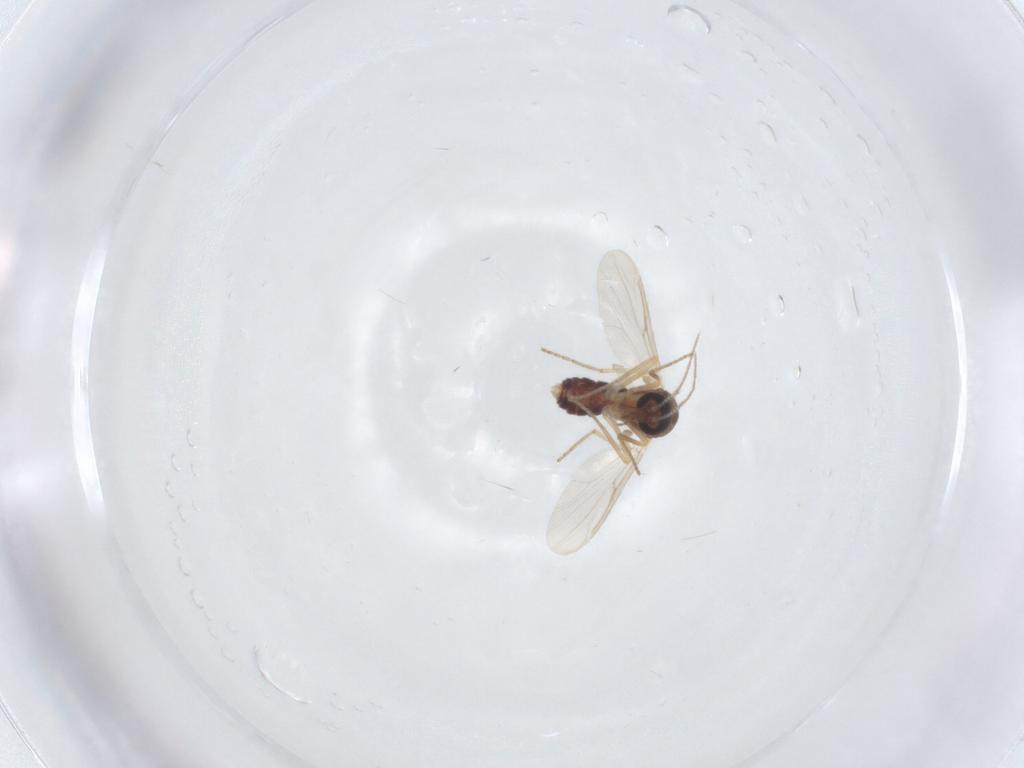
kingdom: Animalia
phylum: Arthropoda
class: Insecta
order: Diptera
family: Ceratopogonidae
